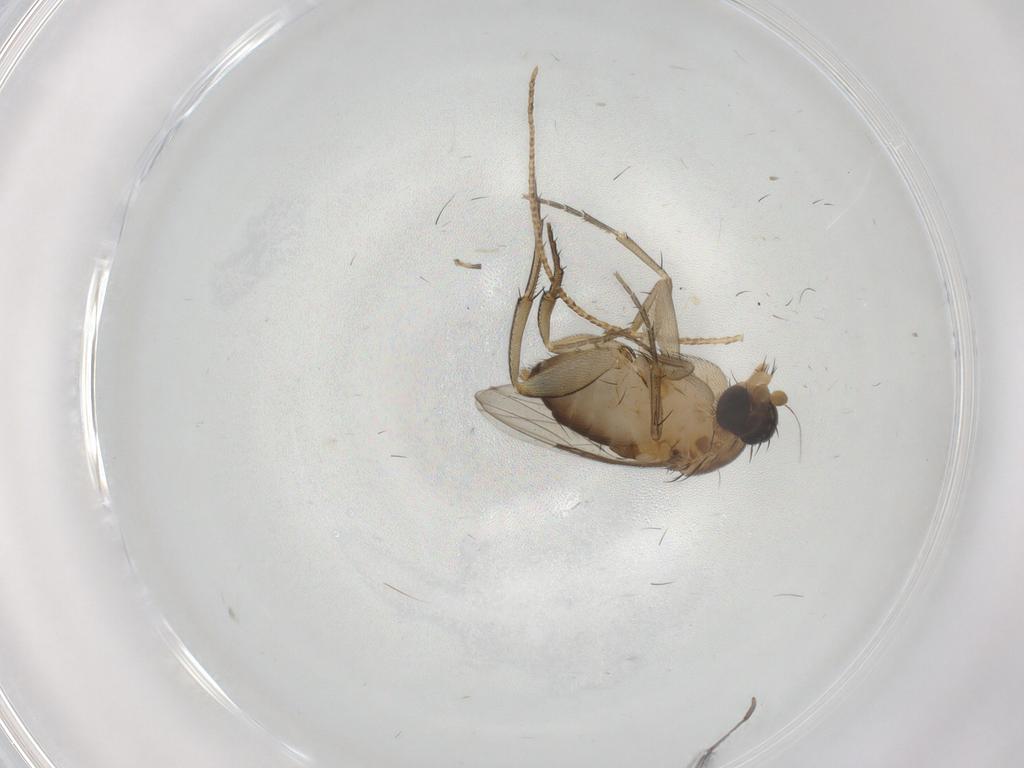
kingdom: Animalia
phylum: Arthropoda
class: Insecta
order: Diptera
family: Phoridae
